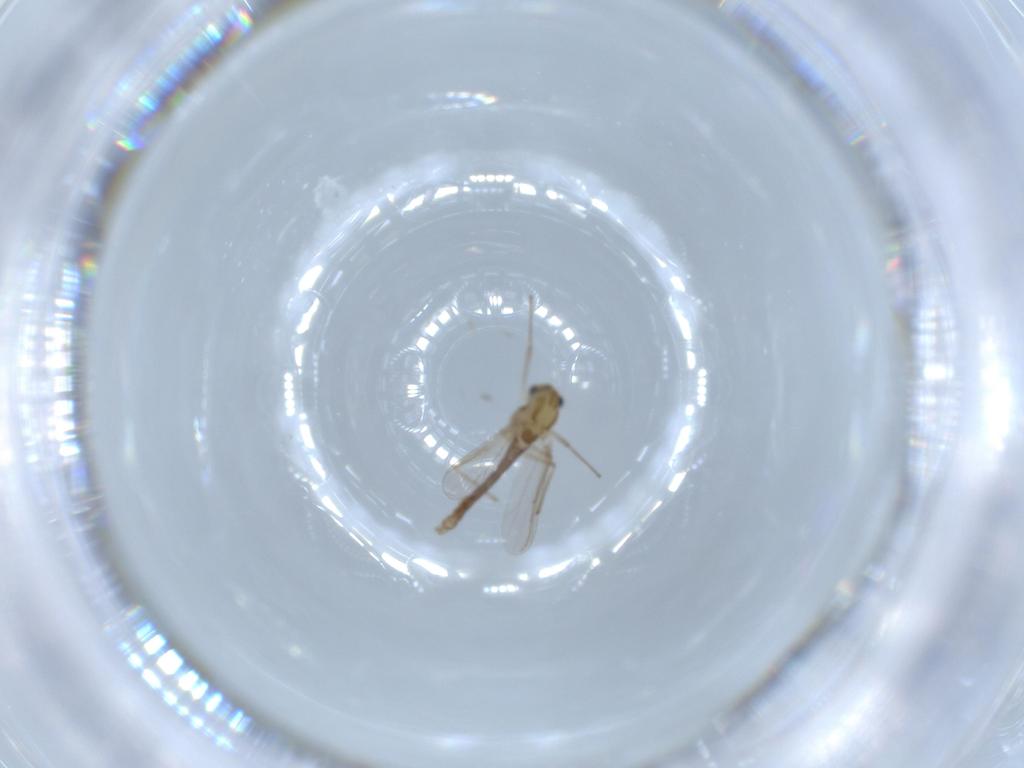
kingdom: Animalia
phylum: Arthropoda
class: Insecta
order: Diptera
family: Chironomidae
